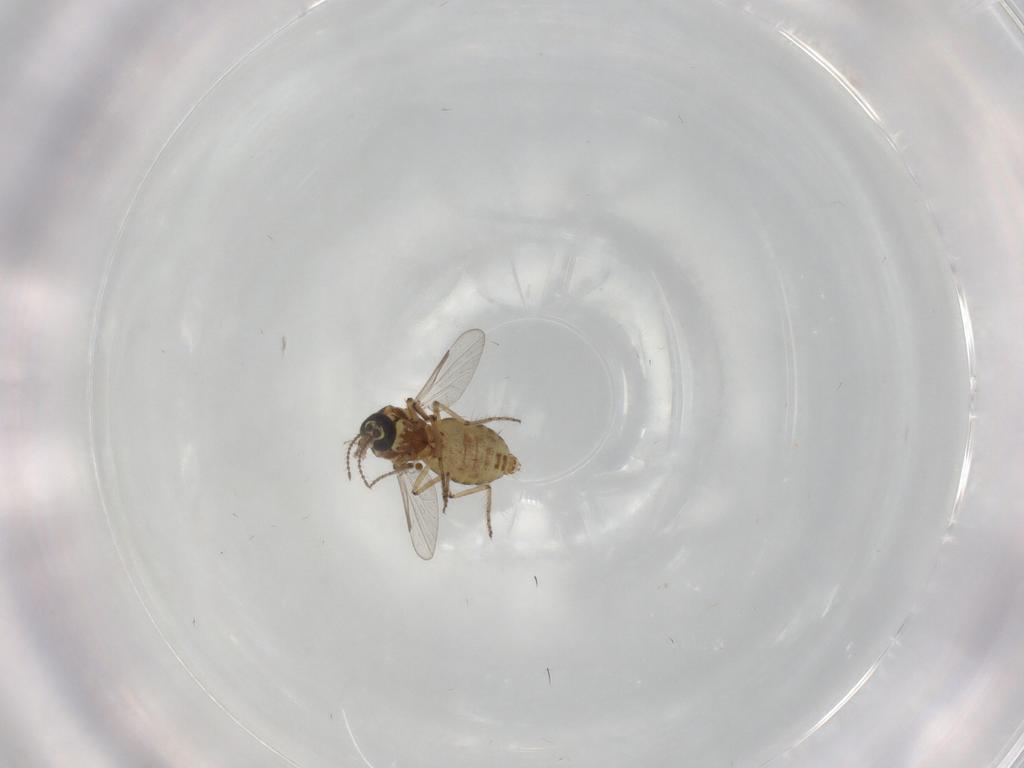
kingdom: Animalia
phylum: Arthropoda
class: Insecta
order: Diptera
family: Ceratopogonidae
